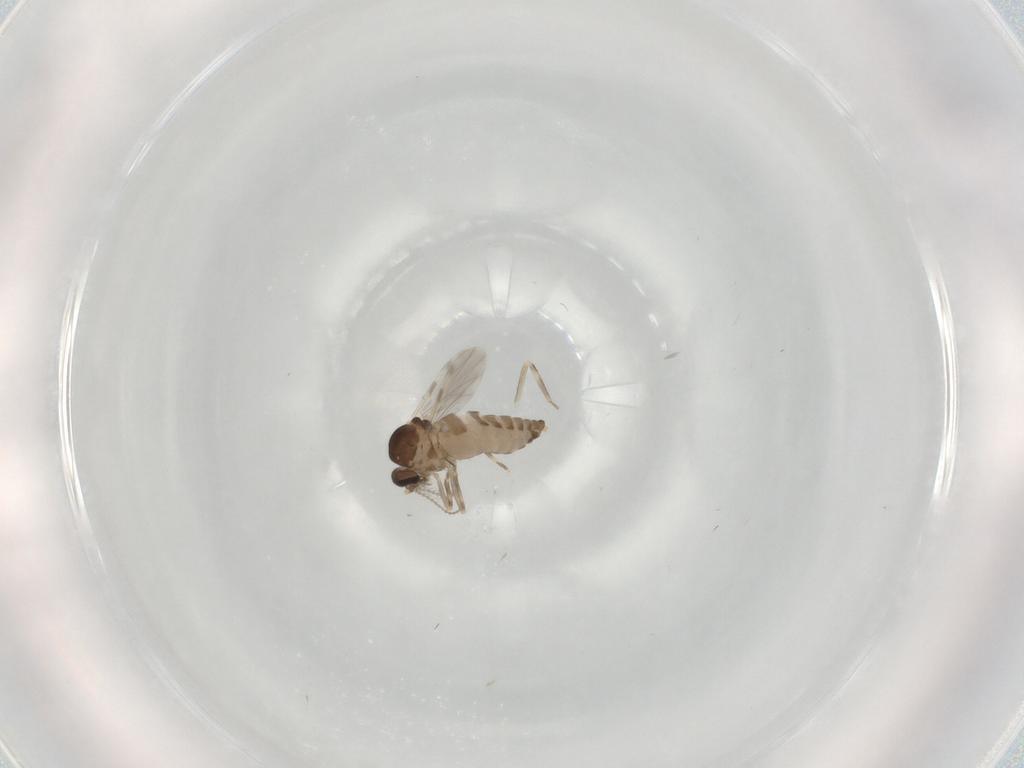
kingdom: Animalia
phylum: Arthropoda
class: Insecta
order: Diptera
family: Ceratopogonidae
